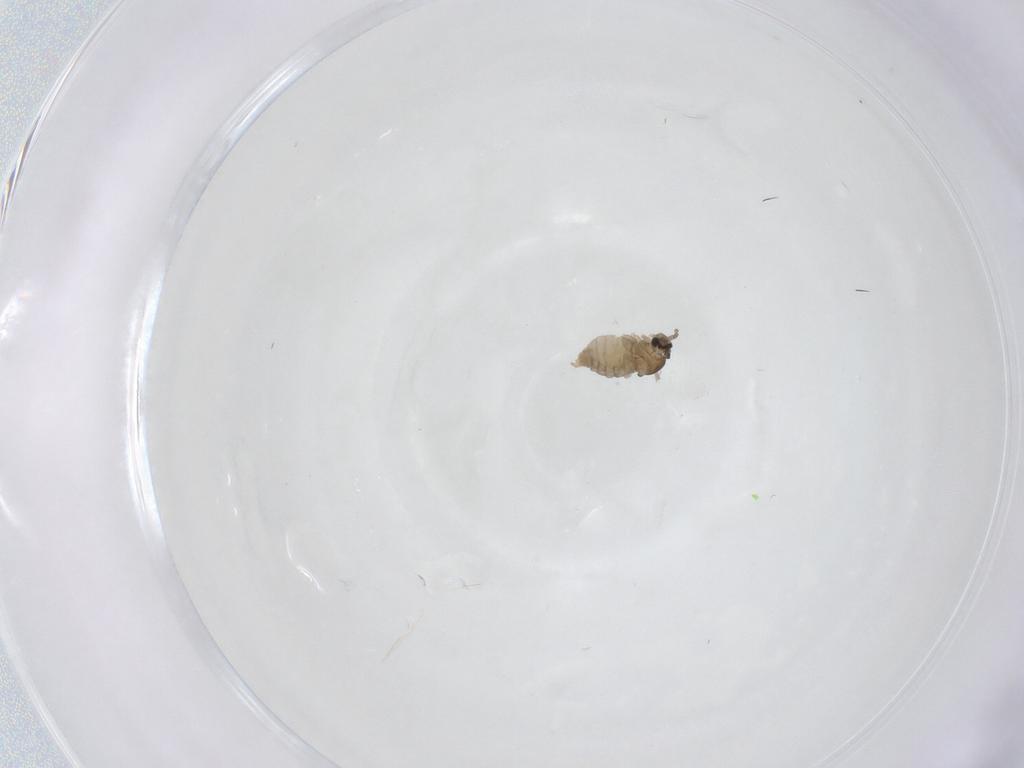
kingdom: Animalia
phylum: Arthropoda
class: Insecta
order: Diptera
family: Cecidomyiidae
